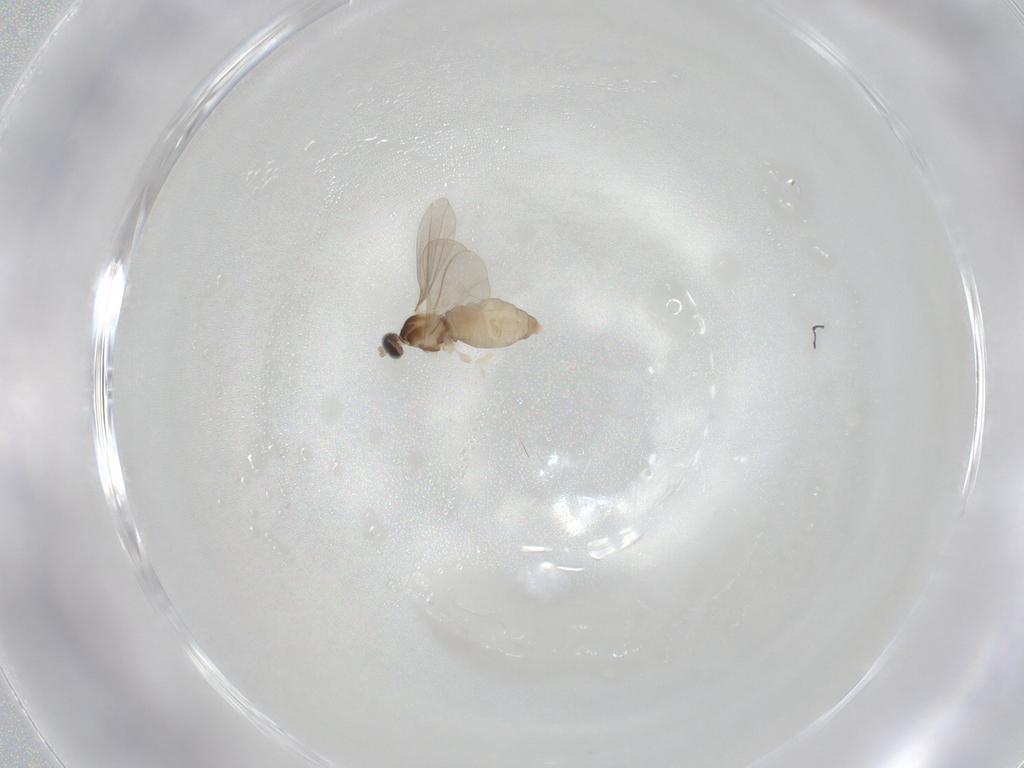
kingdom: Animalia
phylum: Arthropoda
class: Insecta
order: Diptera
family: Cecidomyiidae
